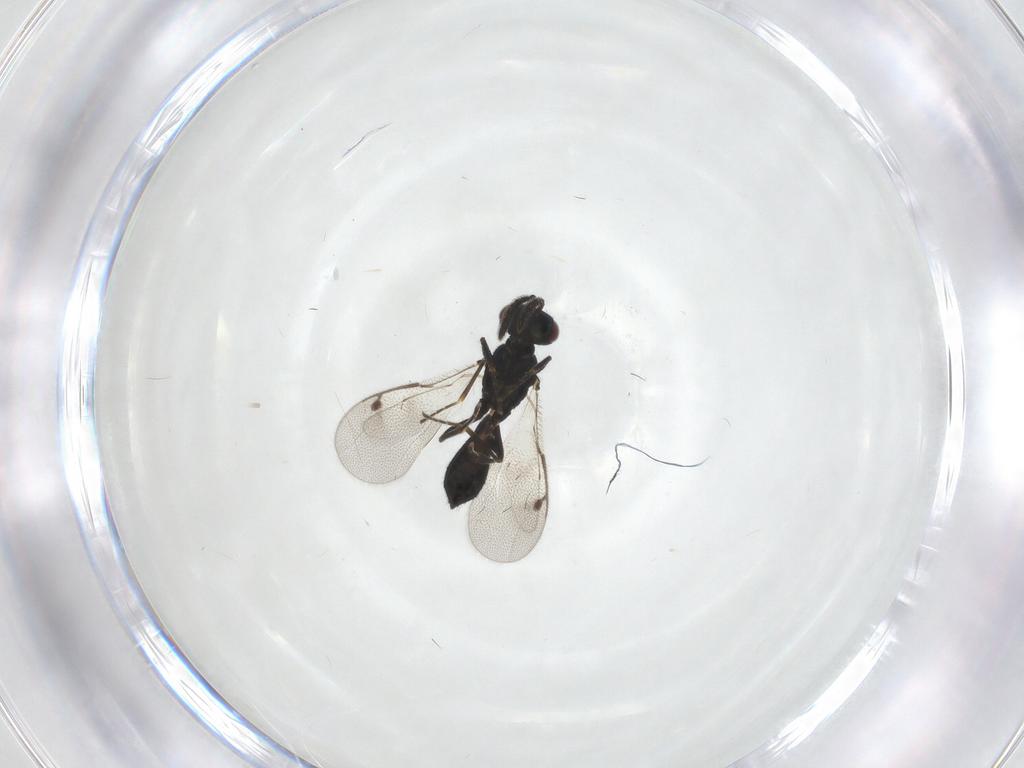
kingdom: Animalia
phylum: Arthropoda
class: Insecta
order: Hymenoptera
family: Pteromalidae
